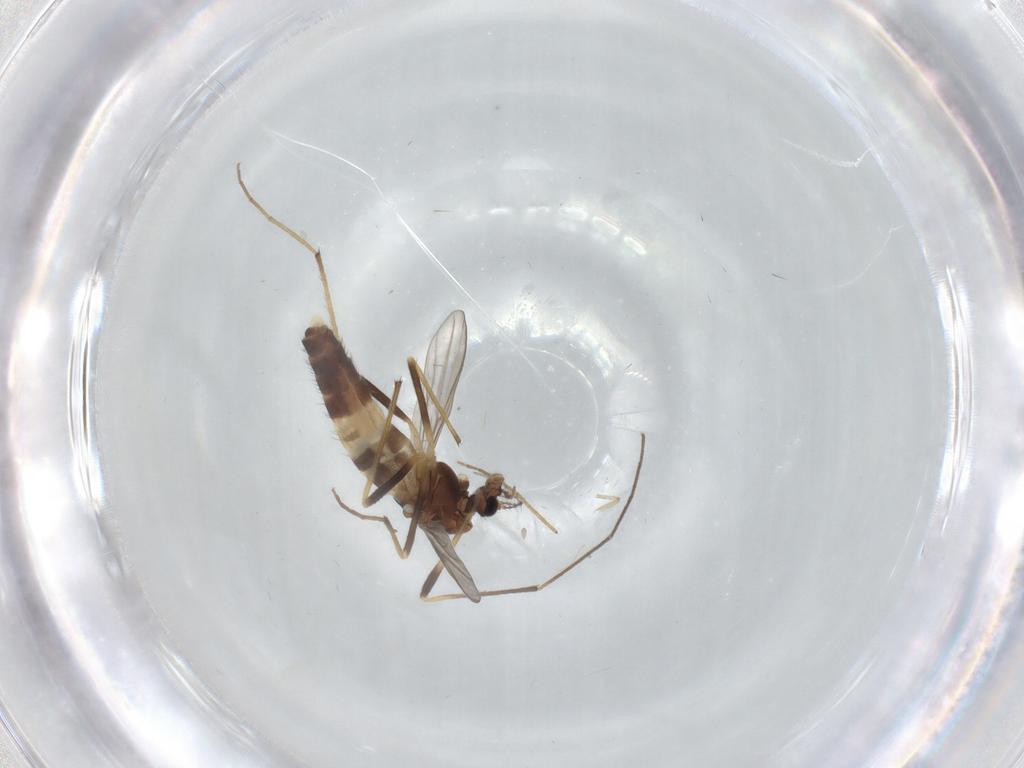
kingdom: Animalia
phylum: Arthropoda
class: Insecta
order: Diptera
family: Chironomidae
